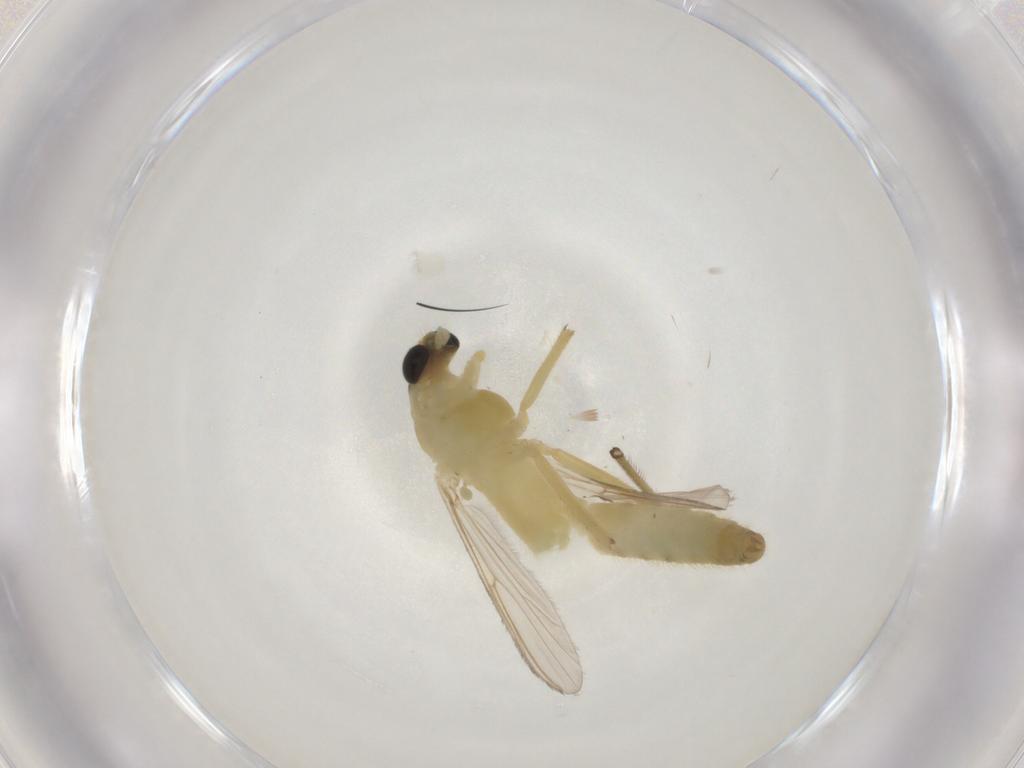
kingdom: Animalia
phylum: Arthropoda
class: Insecta
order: Diptera
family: Chironomidae
